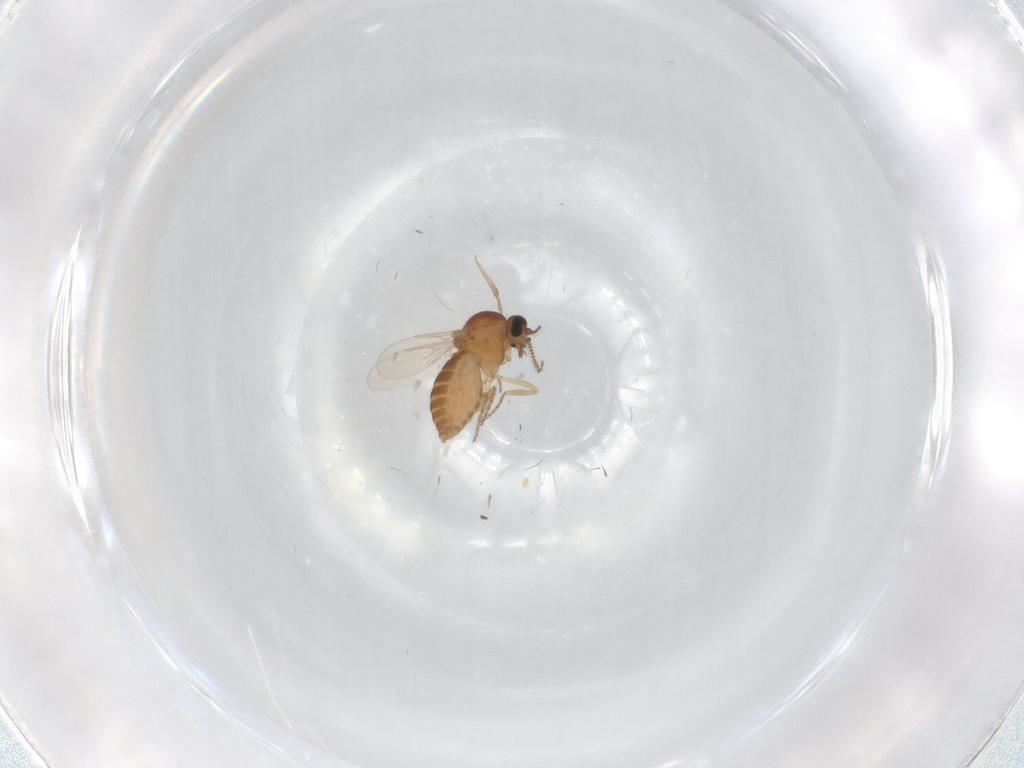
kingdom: Animalia
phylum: Arthropoda
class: Insecta
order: Diptera
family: Ceratopogonidae
